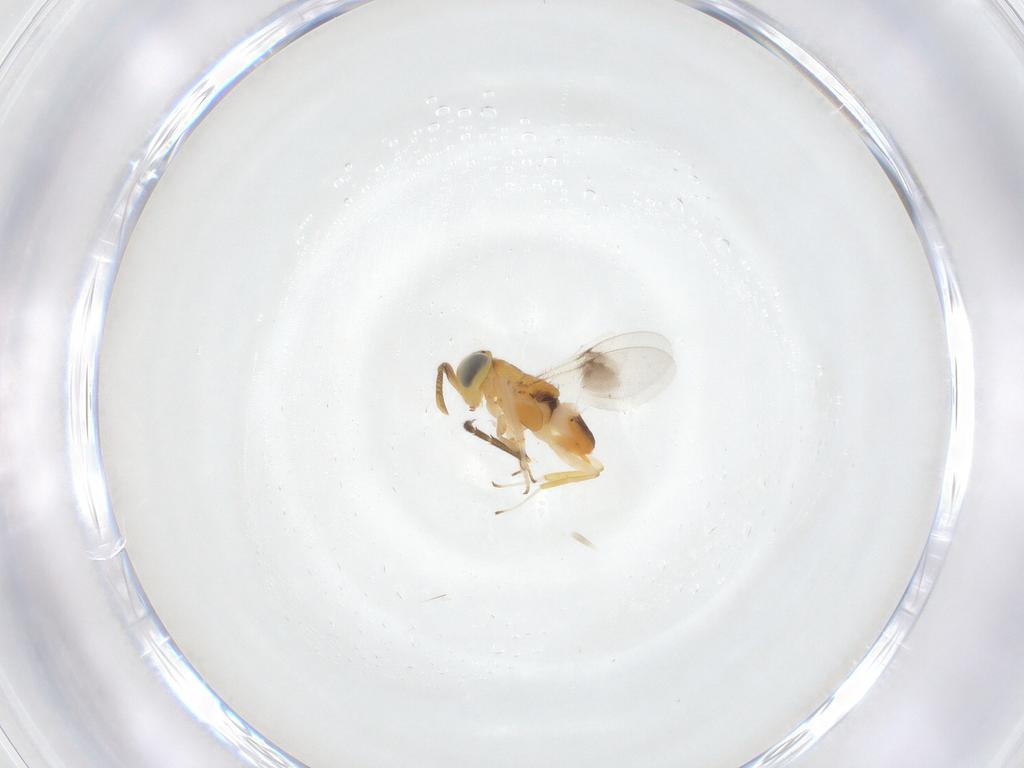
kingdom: Animalia
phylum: Arthropoda
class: Insecta
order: Hymenoptera
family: Encyrtidae
